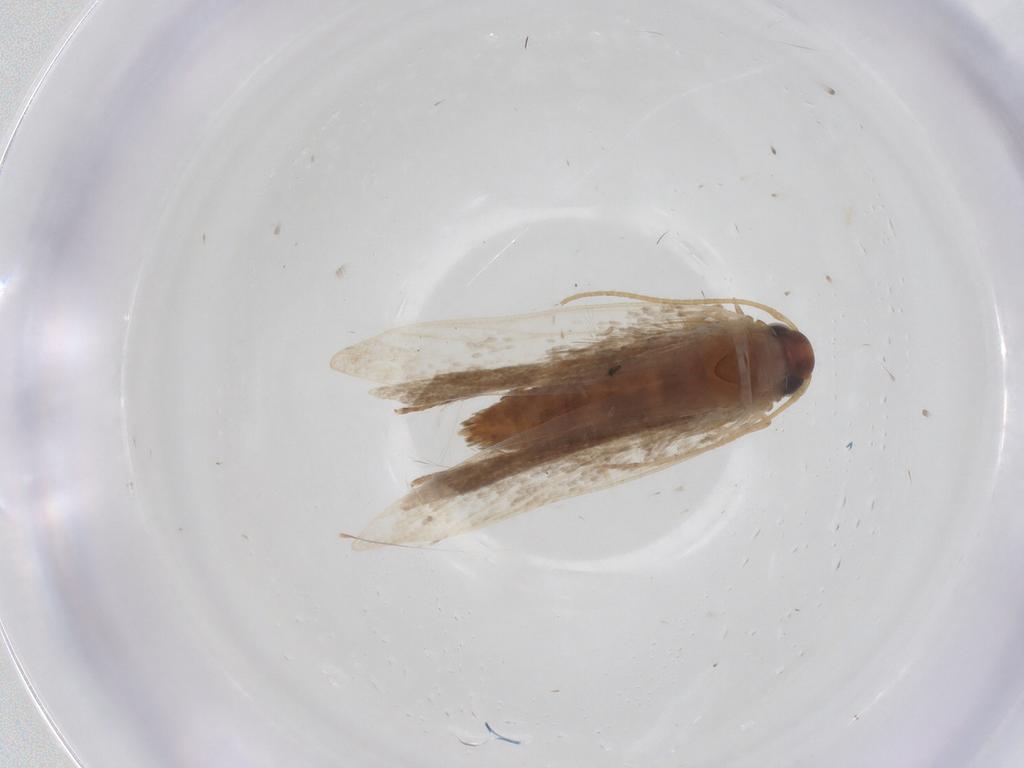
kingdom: Animalia
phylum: Arthropoda
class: Insecta
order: Lepidoptera
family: Gelechiidae
